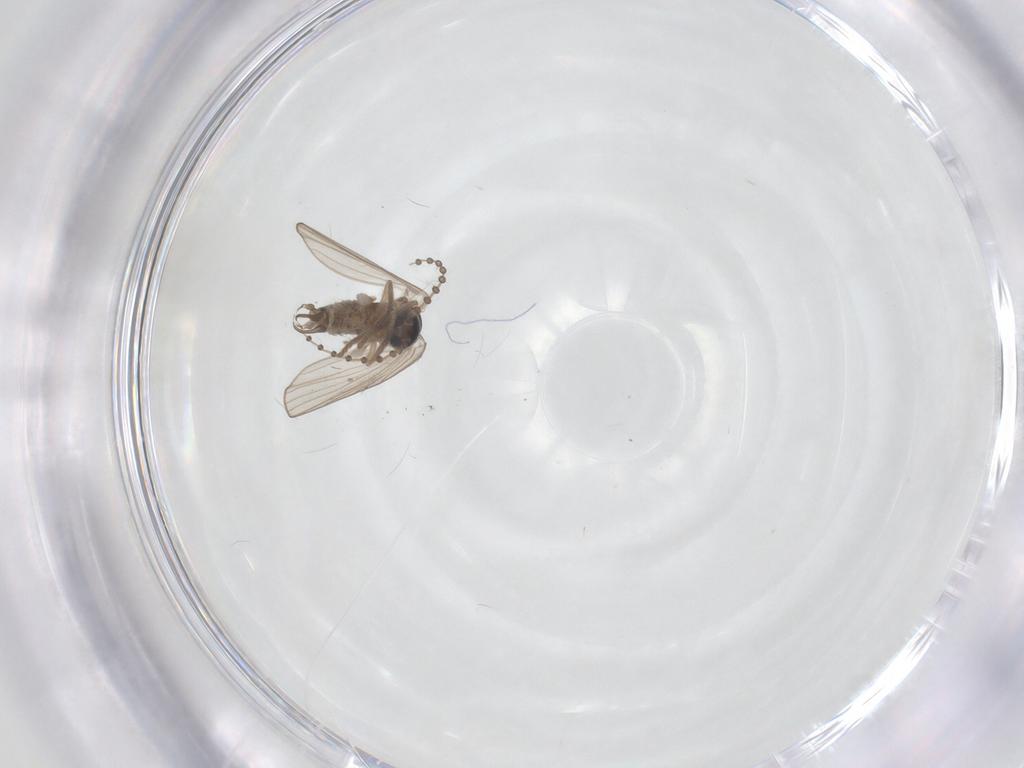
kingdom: Animalia
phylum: Arthropoda
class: Insecta
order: Diptera
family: Psychodidae
